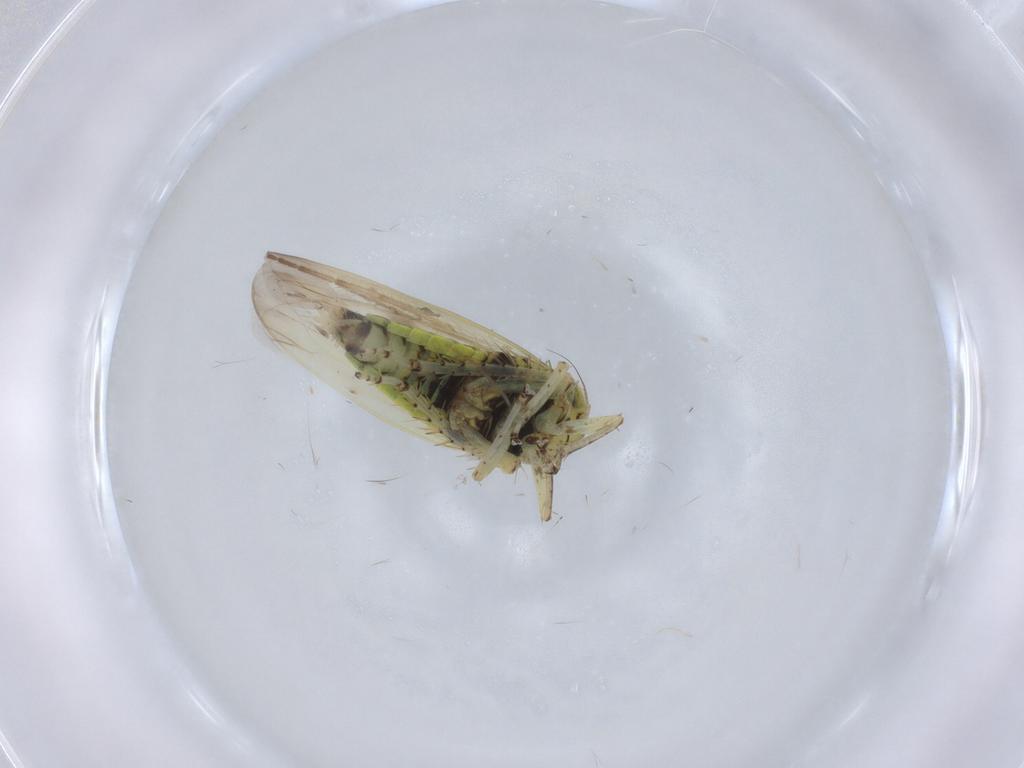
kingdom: Animalia
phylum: Arthropoda
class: Insecta
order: Hemiptera
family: Cicadellidae
